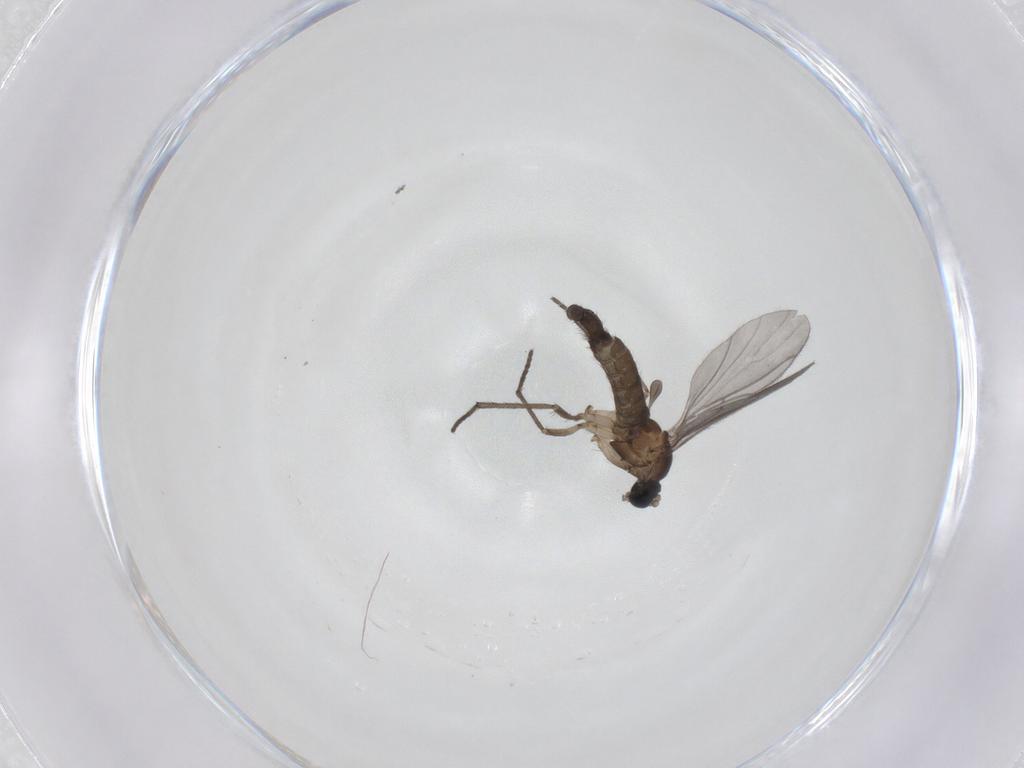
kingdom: Animalia
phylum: Arthropoda
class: Insecta
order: Diptera
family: Sciaridae
